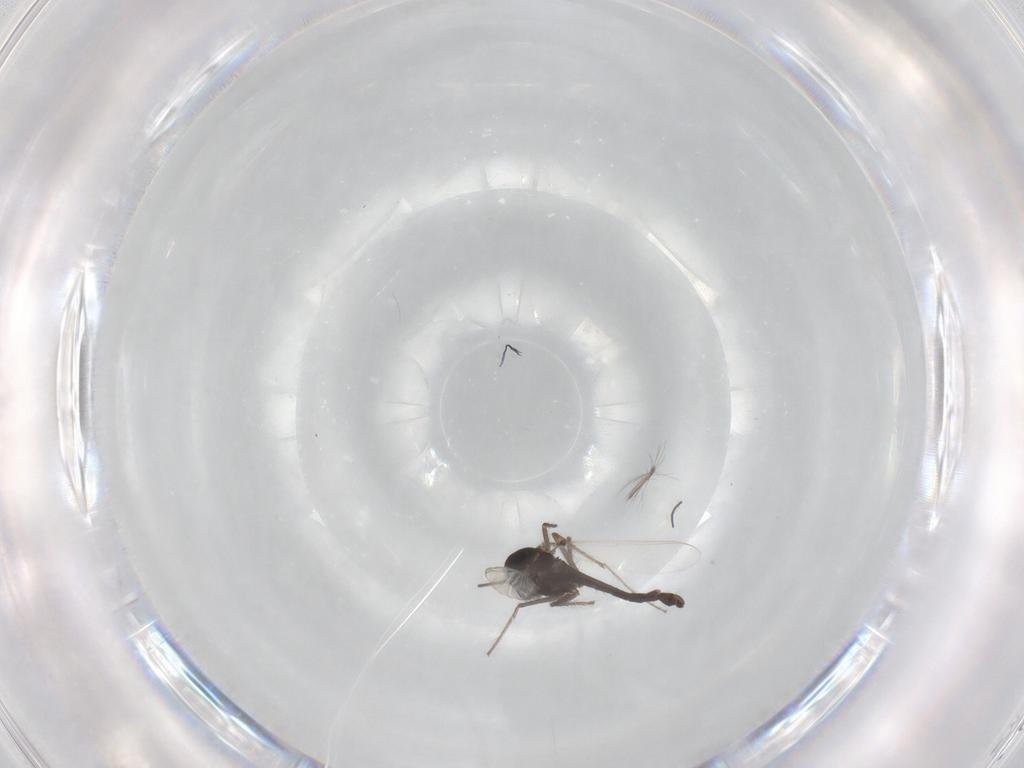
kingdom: Animalia
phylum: Arthropoda
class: Insecta
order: Diptera
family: Chironomidae
